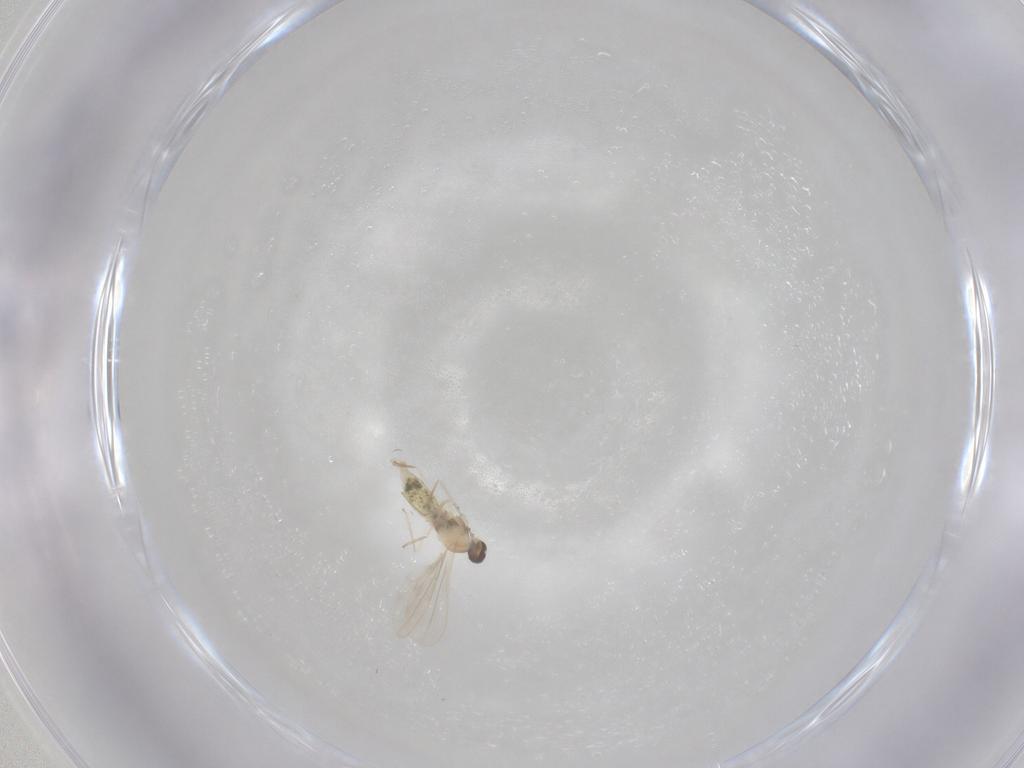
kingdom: Animalia
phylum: Arthropoda
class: Insecta
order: Diptera
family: Cecidomyiidae
